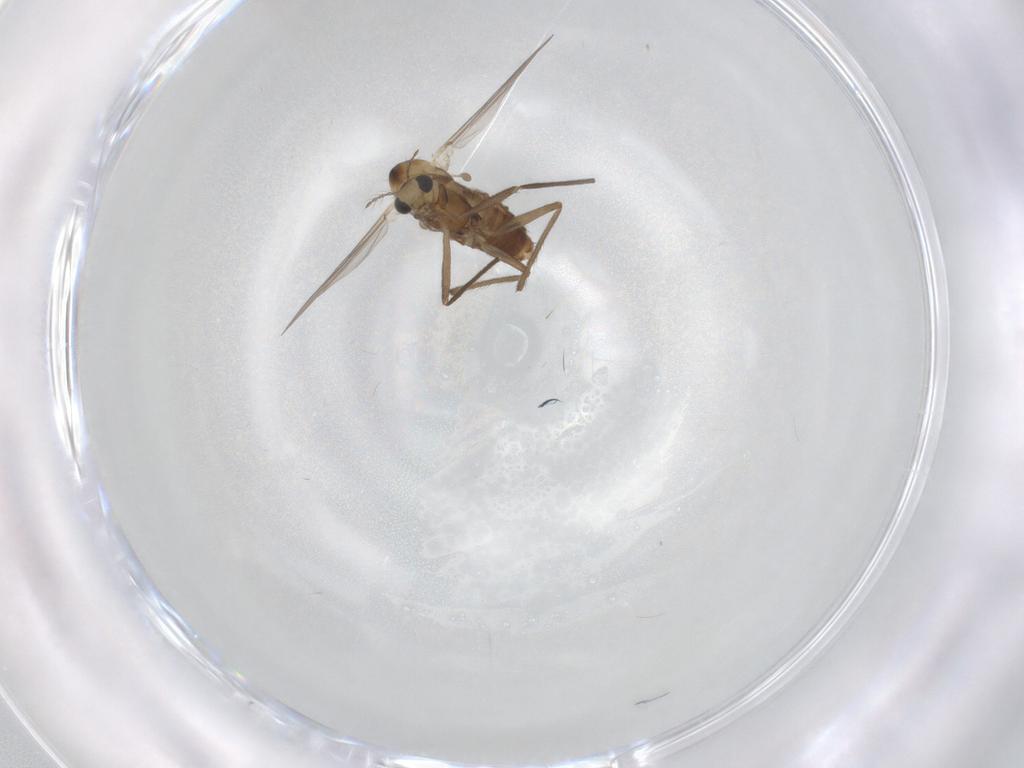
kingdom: Animalia
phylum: Arthropoda
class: Insecta
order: Diptera
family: Chironomidae
